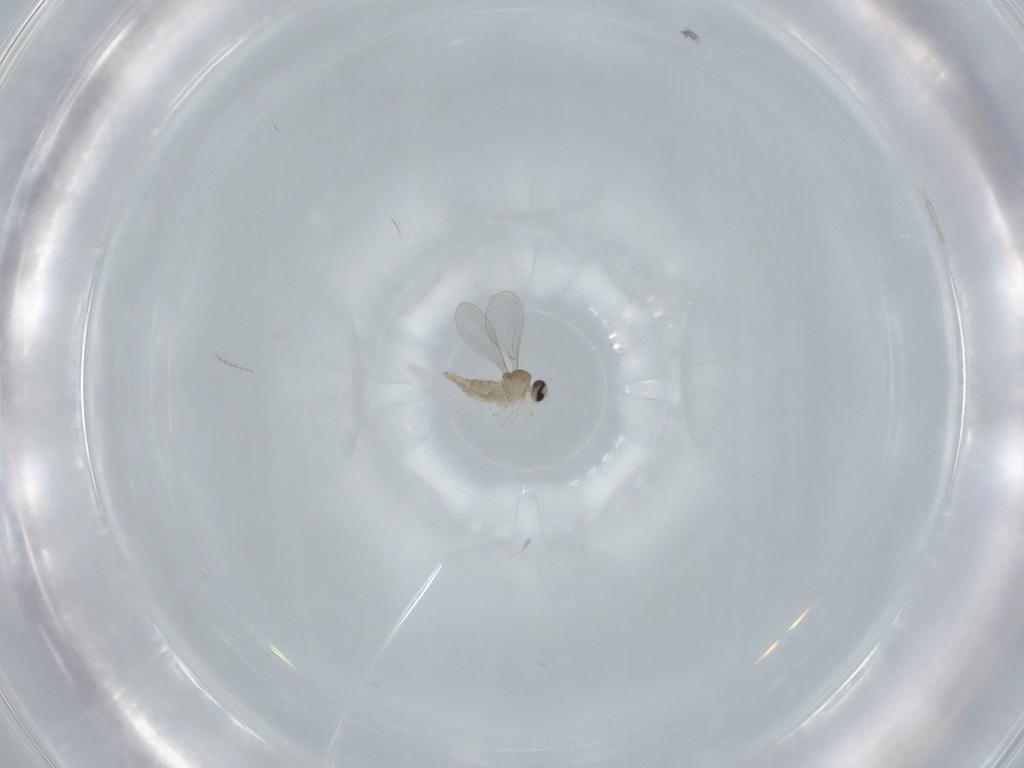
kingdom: Animalia
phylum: Arthropoda
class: Insecta
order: Diptera
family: Cecidomyiidae
